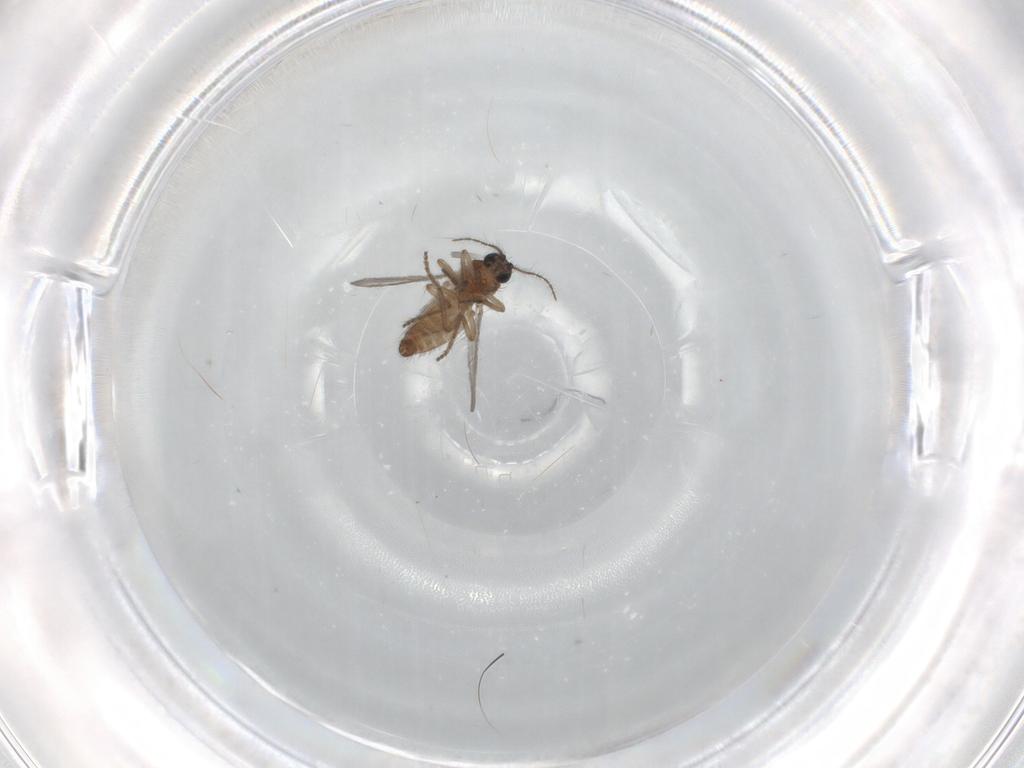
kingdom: Animalia
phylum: Arthropoda
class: Insecta
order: Diptera
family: Ceratopogonidae
